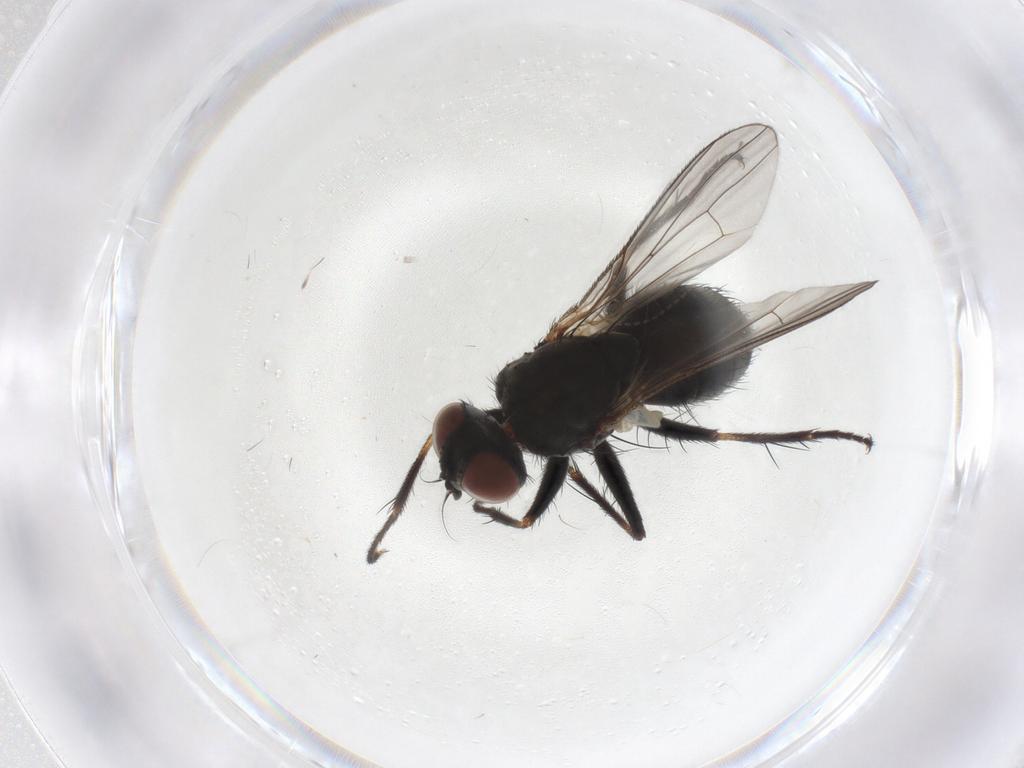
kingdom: Animalia
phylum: Arthropoda
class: Insecta
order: Diptera
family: Muscidae
